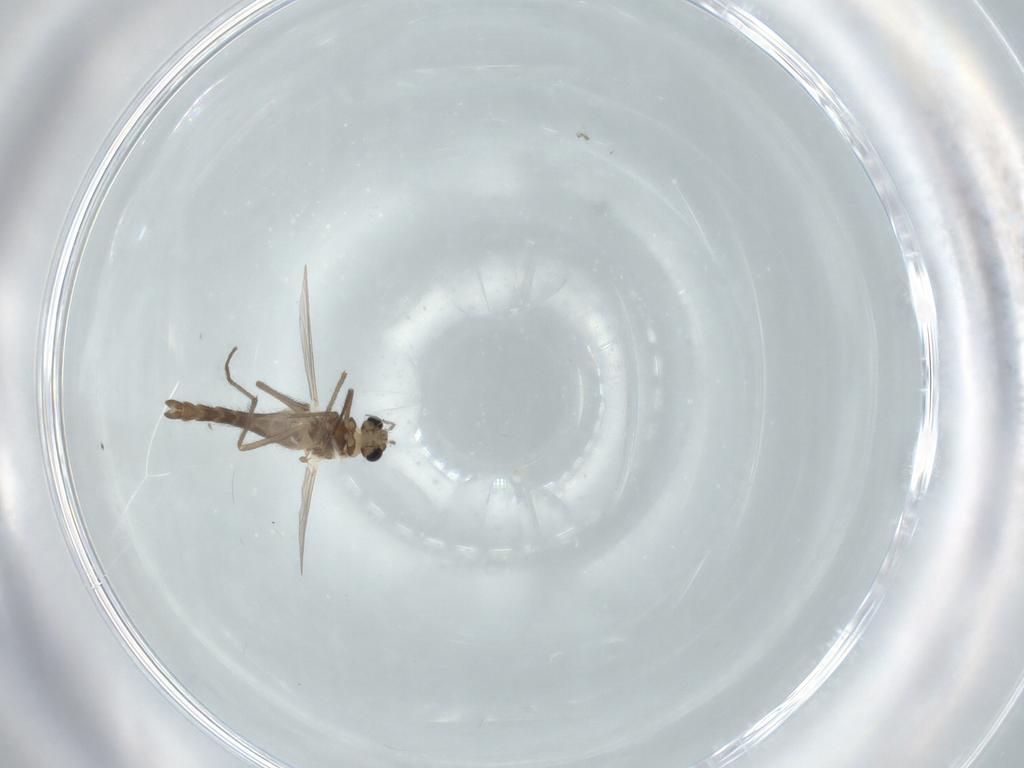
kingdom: Animalia
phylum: Arthropoda
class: Insecta
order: Diptera
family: Chironomidae
